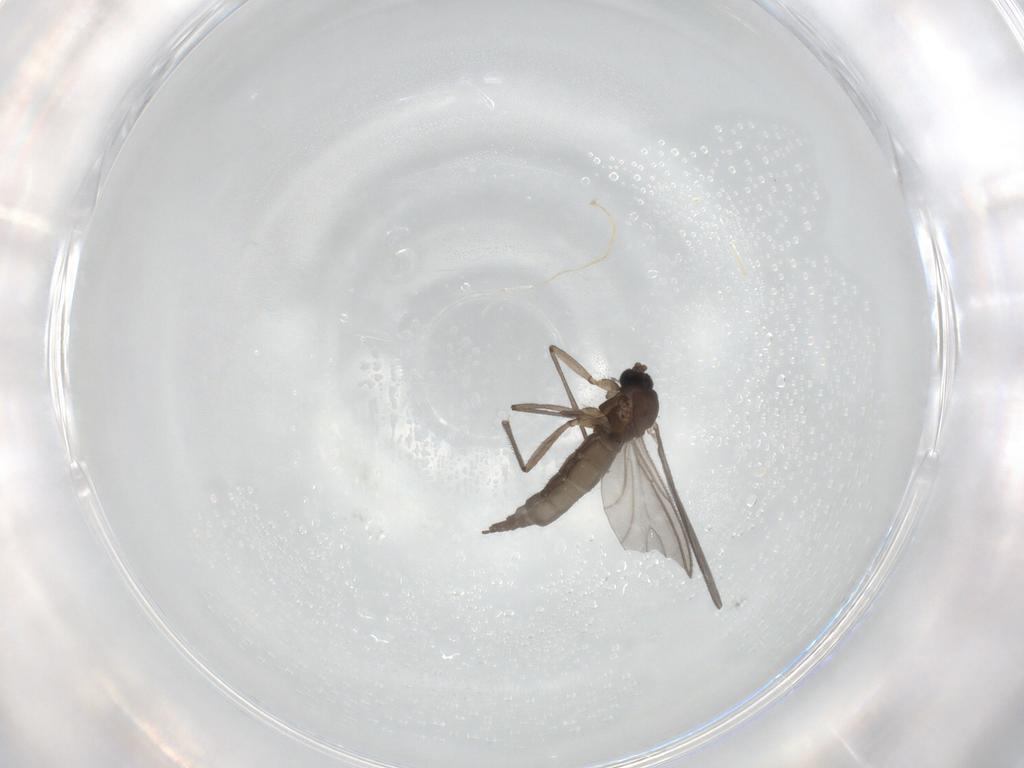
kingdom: Animalia
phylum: Arthropoda
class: Insecta
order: Diptera
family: Sciaridae
